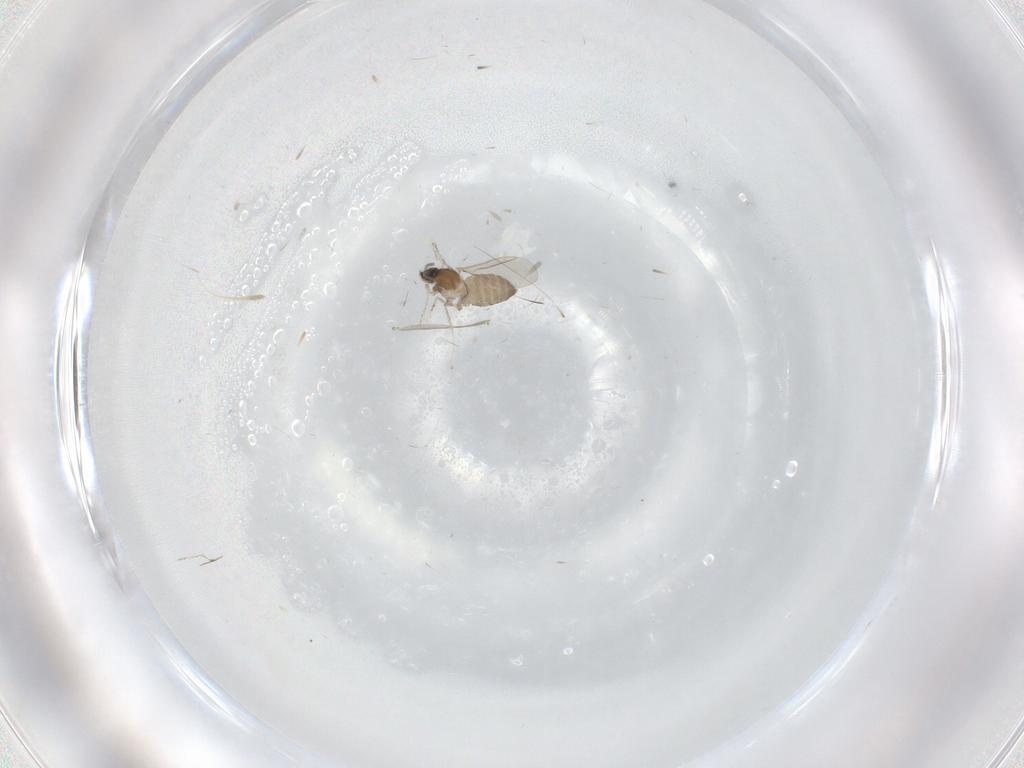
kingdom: Animalia
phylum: Arthropoda
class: Insecta
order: Diptera
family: Cecidomyiidae
